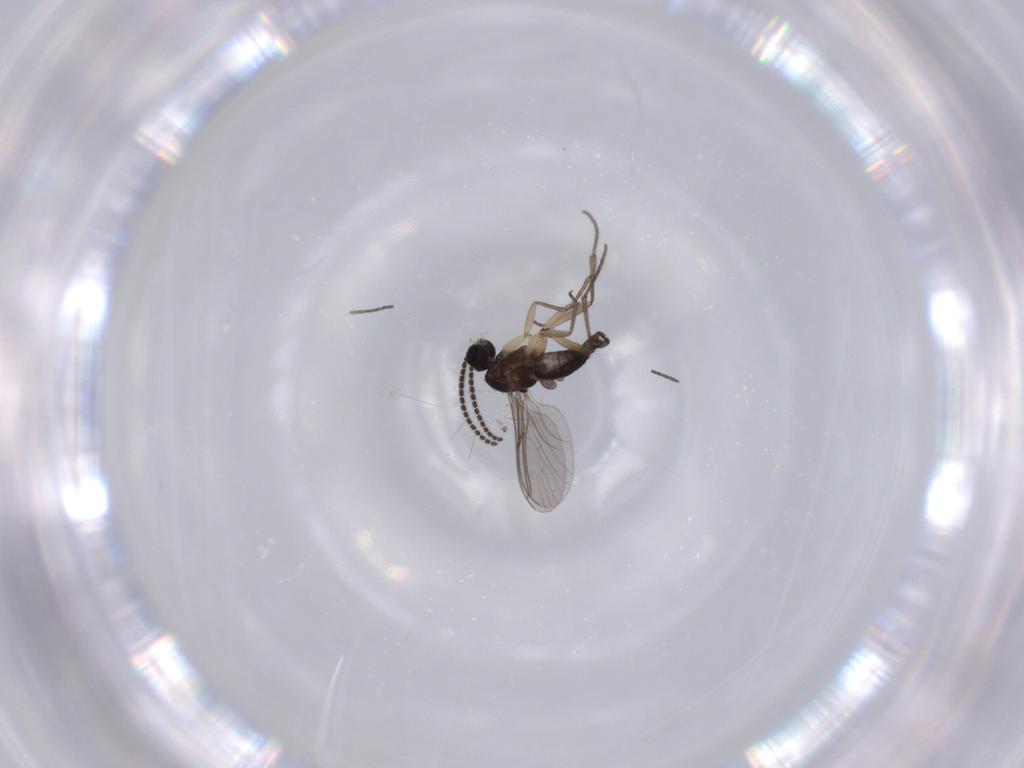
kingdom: Animalia
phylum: Arthropoda
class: Insecta
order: Diptera
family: Sciaridae
